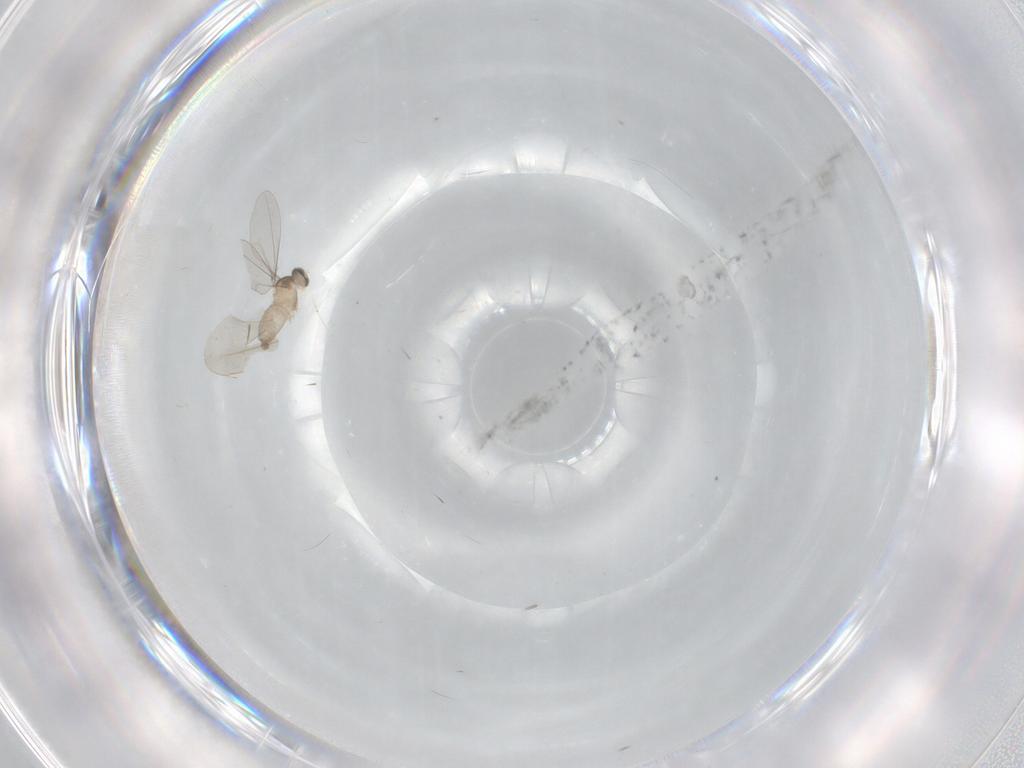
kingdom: Animalia
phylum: Arthropoda
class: Insecta
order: Diptera
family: Cecidomyiidae
